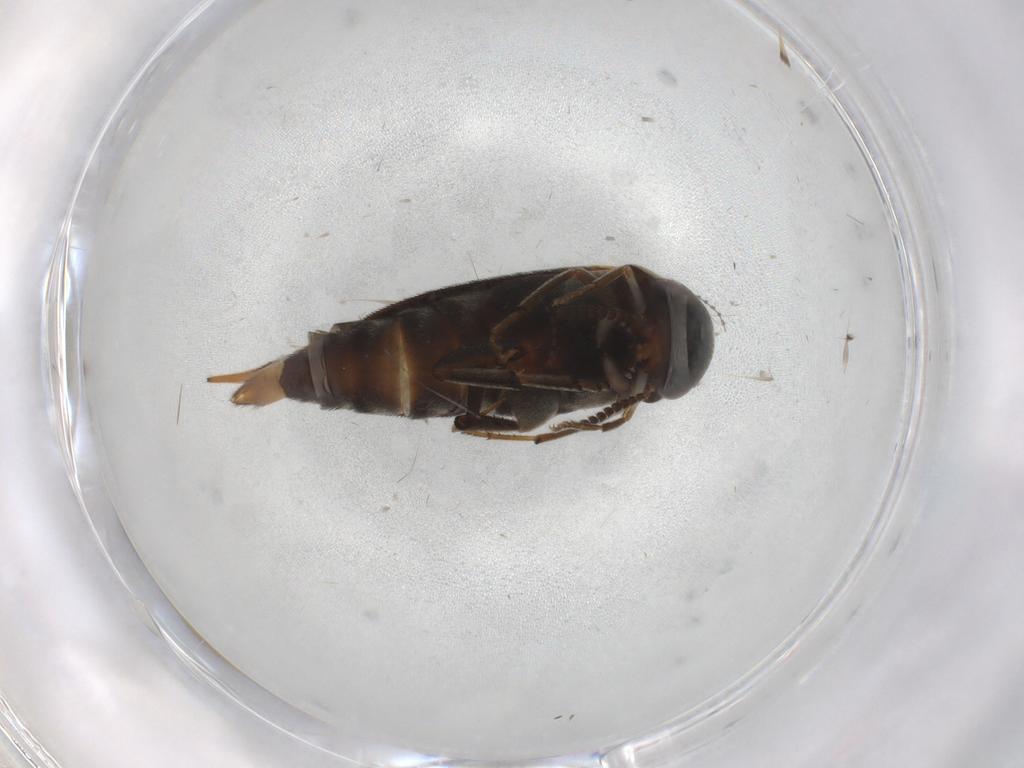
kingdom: Animalia
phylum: Arthropoda
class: Insecta
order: Coleoptera
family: Mordellidae
